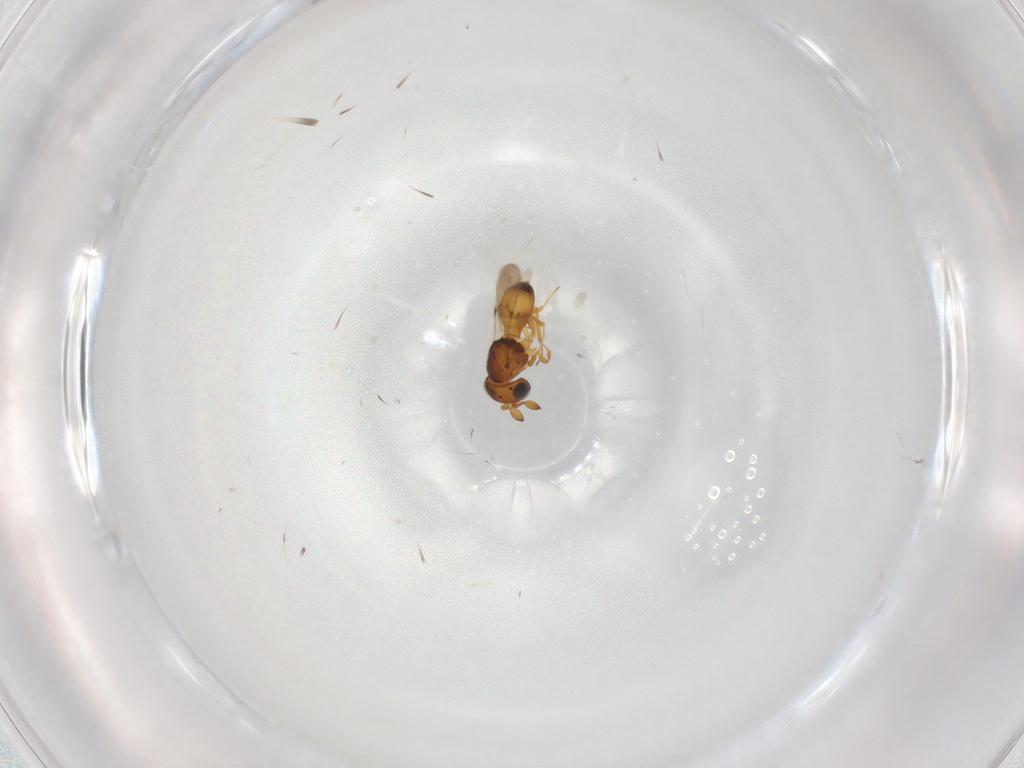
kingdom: Animalia
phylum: Arthropoda
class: Insecta
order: Hymenoptera
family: Scelionidae
